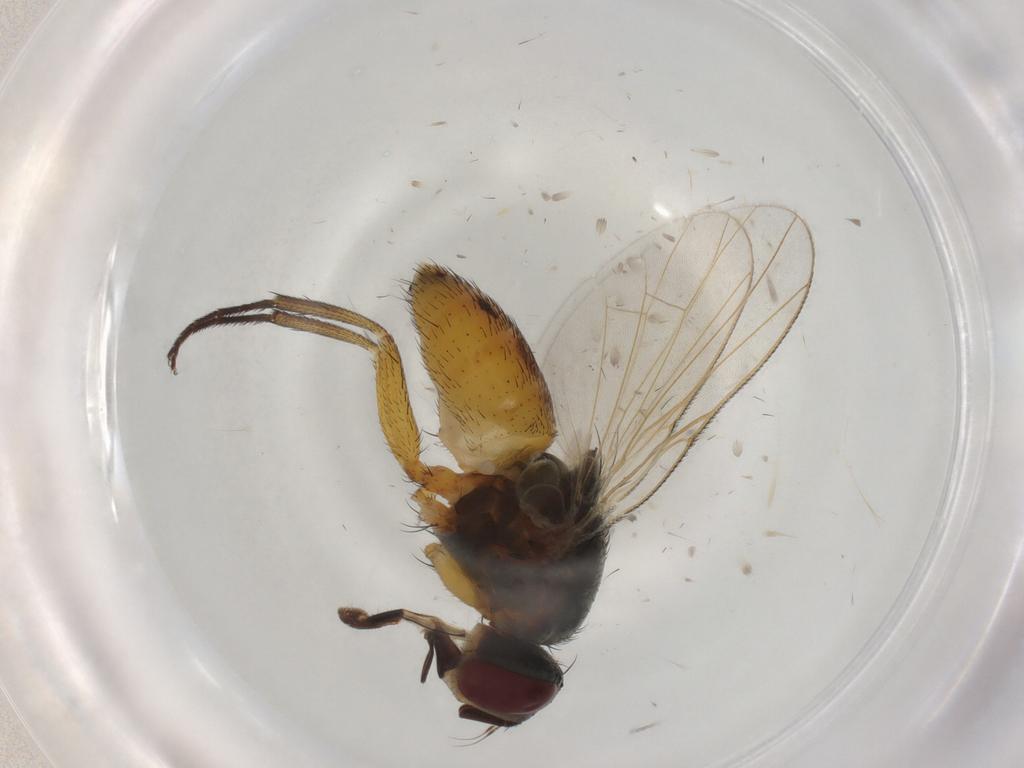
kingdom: Animalia
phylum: Arthropoda
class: Insecta
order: Diptera
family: Muscidae
